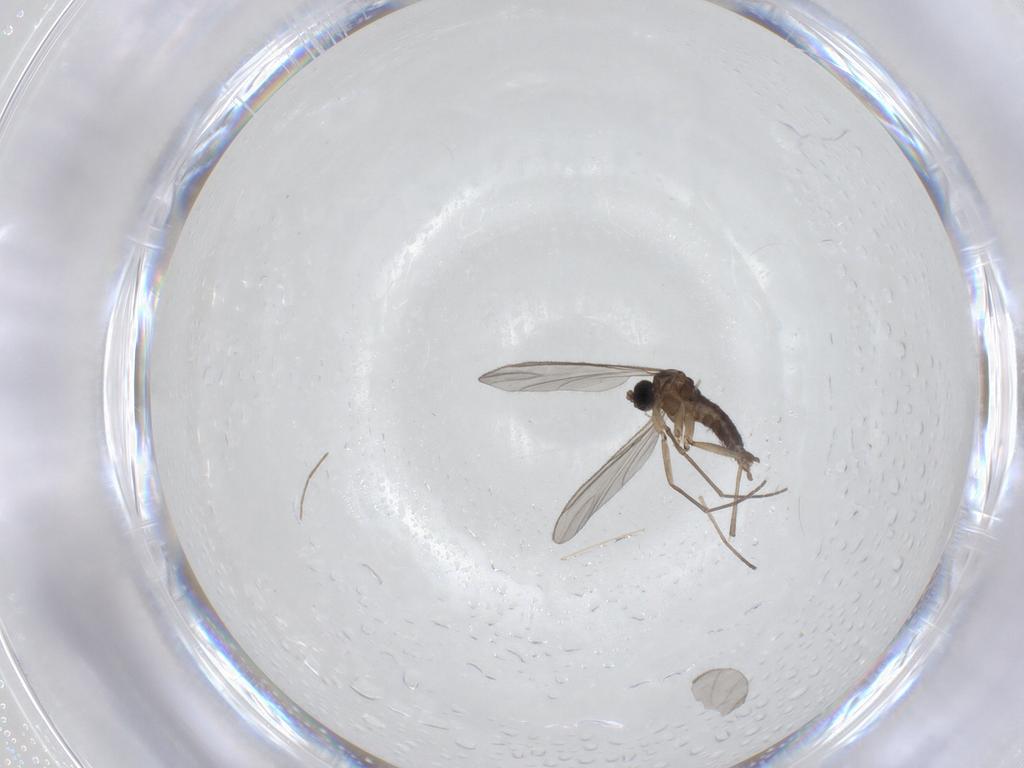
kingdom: Animalia
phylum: Arthropoda
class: Insecta
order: Diptera
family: Sciaridae
